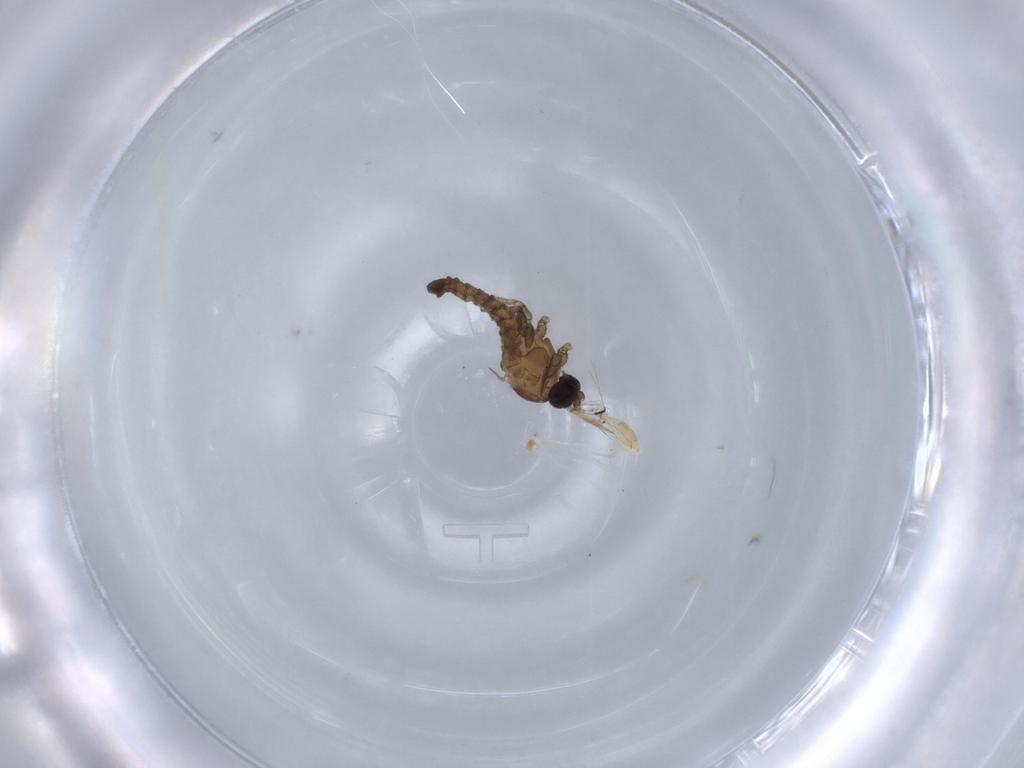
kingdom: Animalia
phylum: Arthropoda
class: Insecta
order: Diptera
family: Cecidomyiidae
